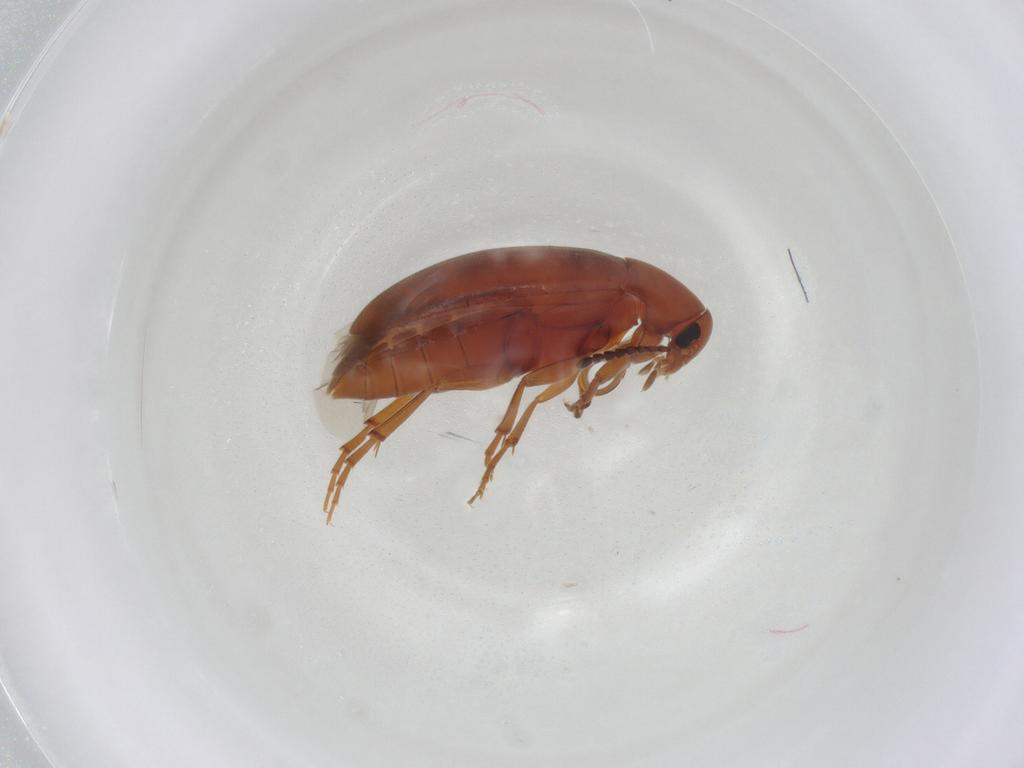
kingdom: Animalia
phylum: Arthropoda
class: Insecta
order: Coleoptera
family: Scraptiidae
